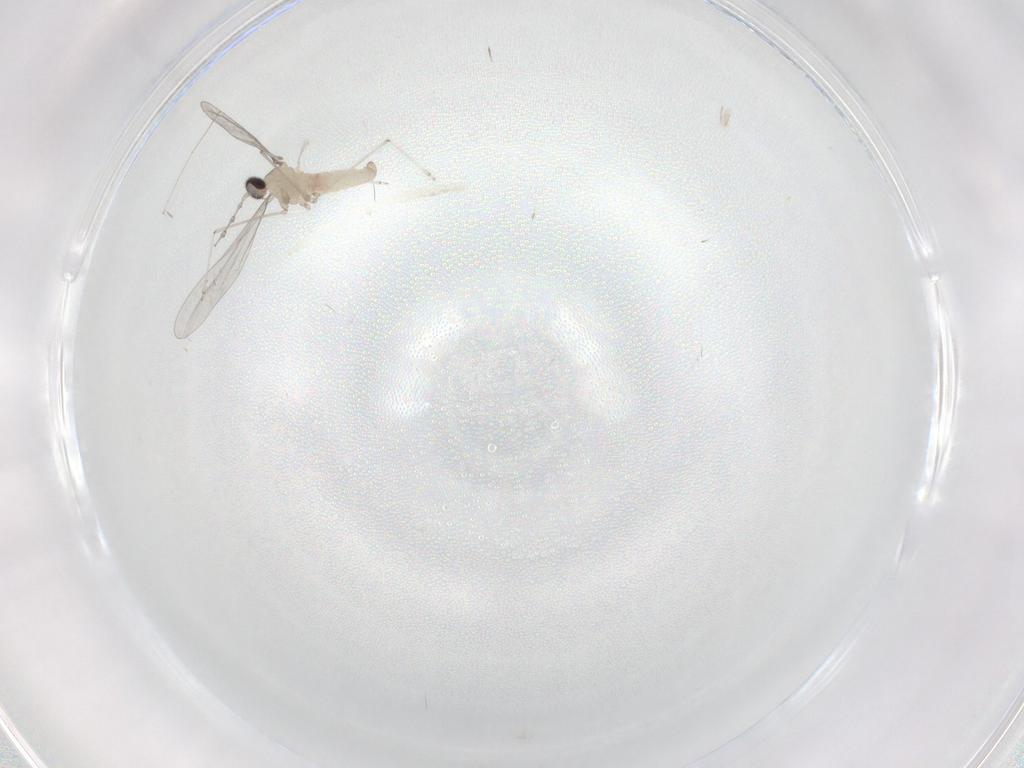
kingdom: Animalia
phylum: Arthropoda
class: Insecta
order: Diptera
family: Cecidomyiidae
